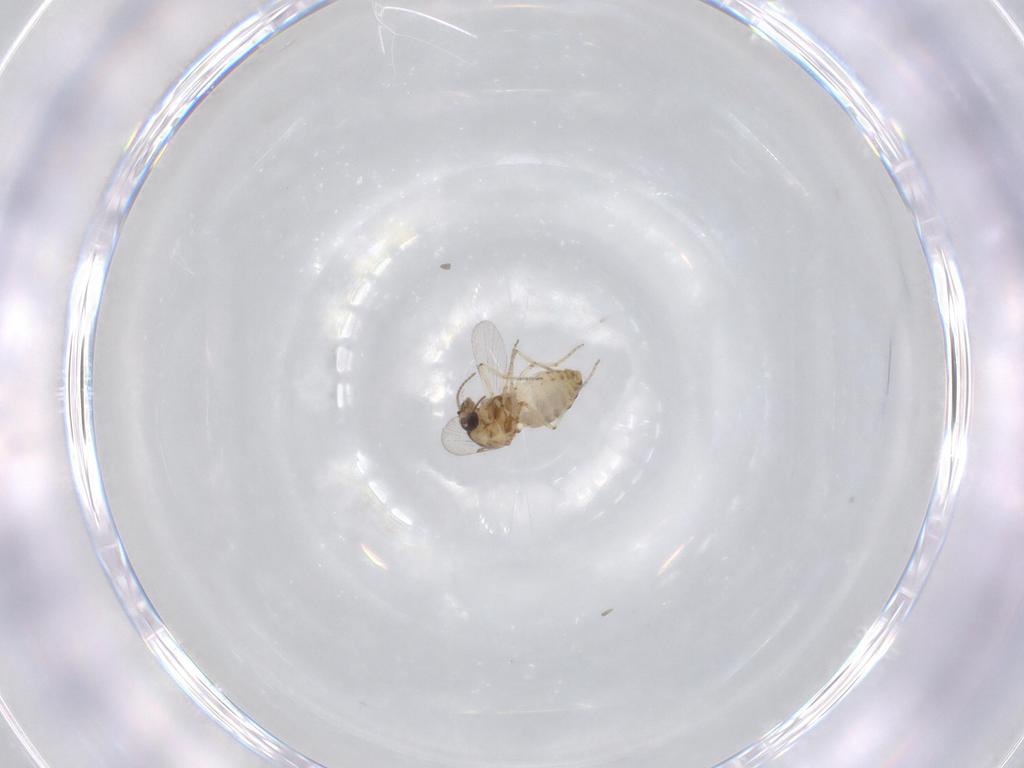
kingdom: Animalia
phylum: Arthropoda
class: Insecta
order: Diptera
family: Ceratopogonidae
